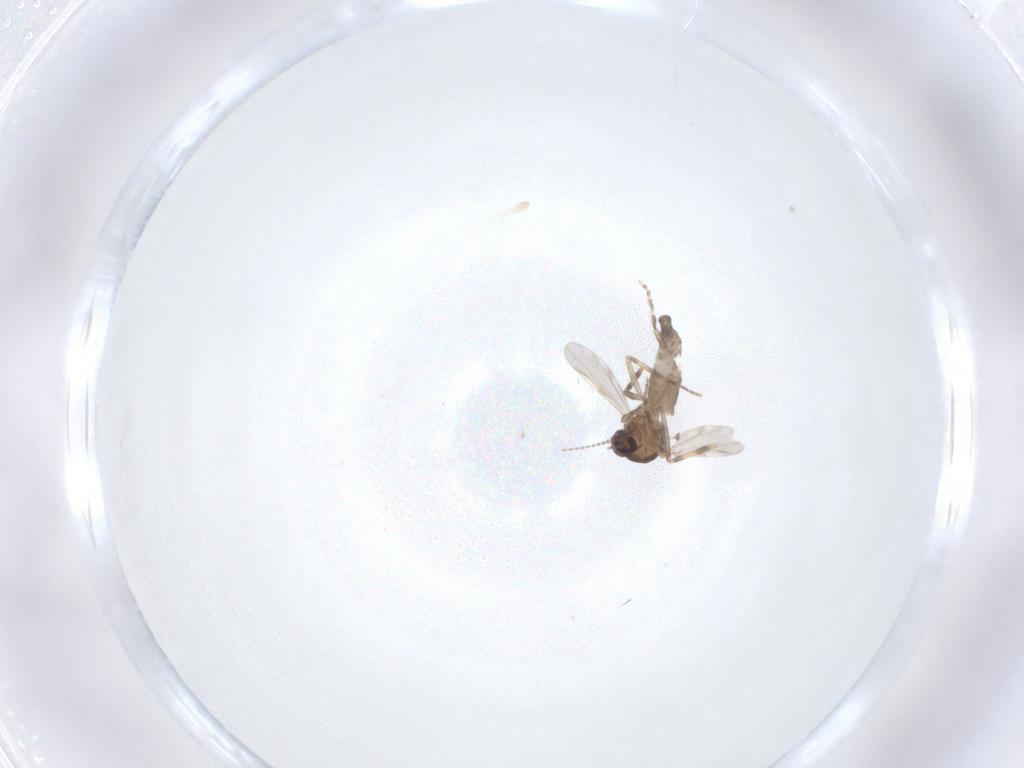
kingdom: Animalia
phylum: Arthropoda
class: Insecta
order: Diptera
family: Ceratopogonidae
